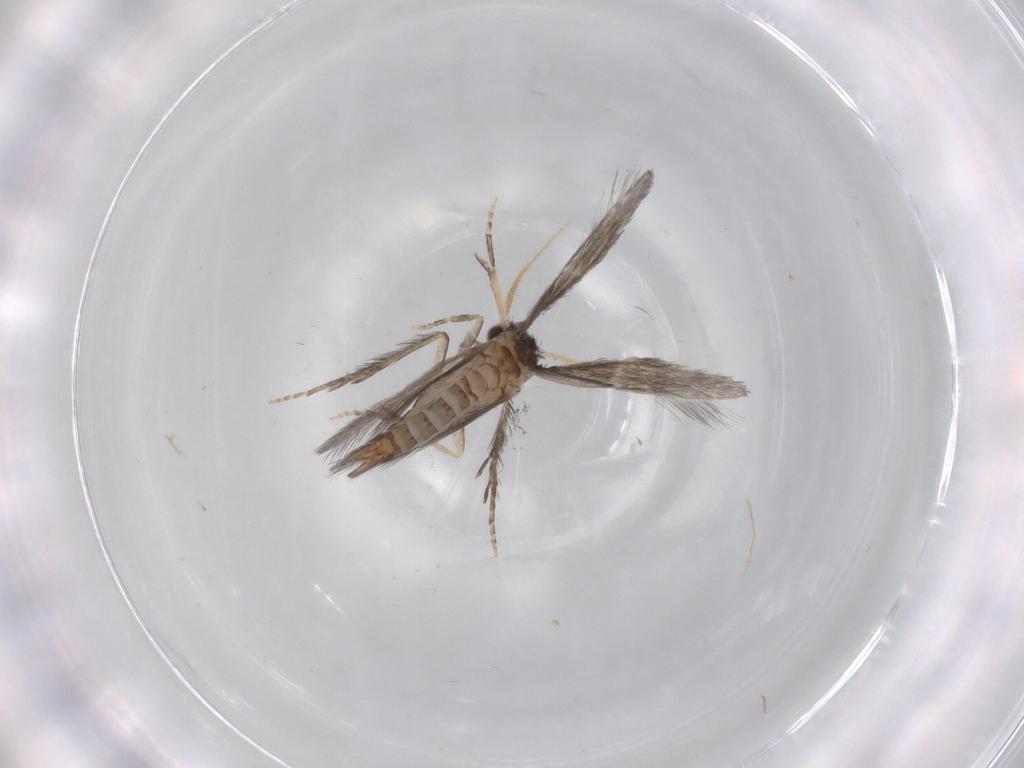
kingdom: Animalia
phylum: Arthropoda
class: Insecta
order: Trichoptera
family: Hydroptilidae
